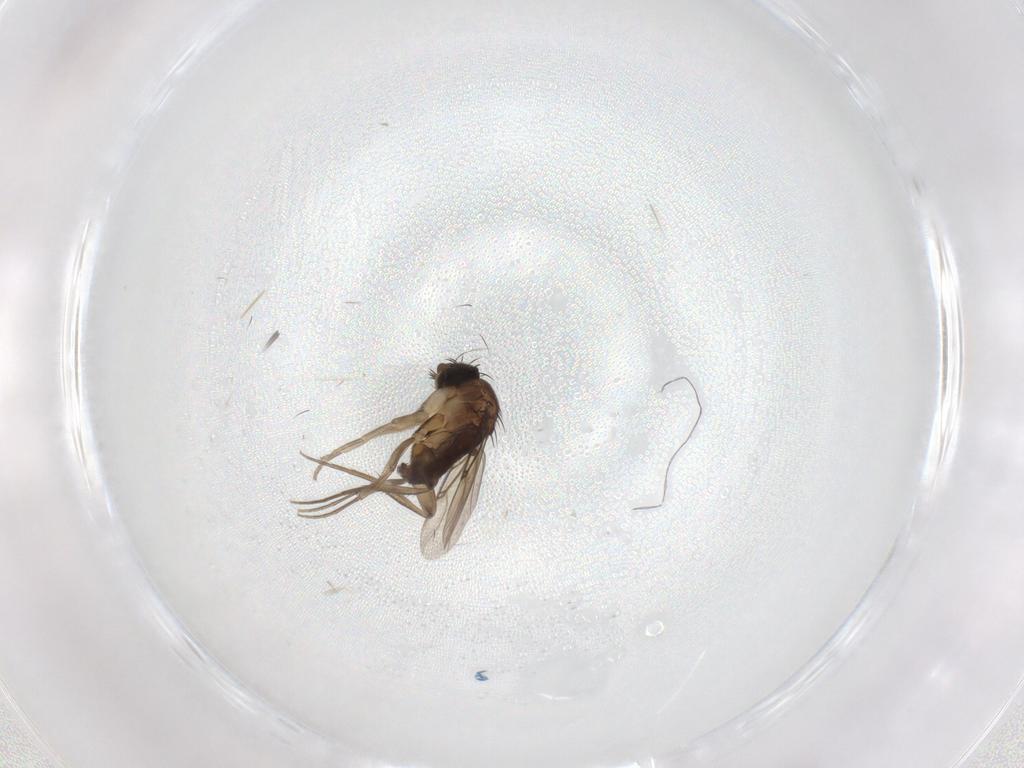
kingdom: Animalia
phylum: Arthropoda
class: Insecta
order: Diptera
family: Phoridae
